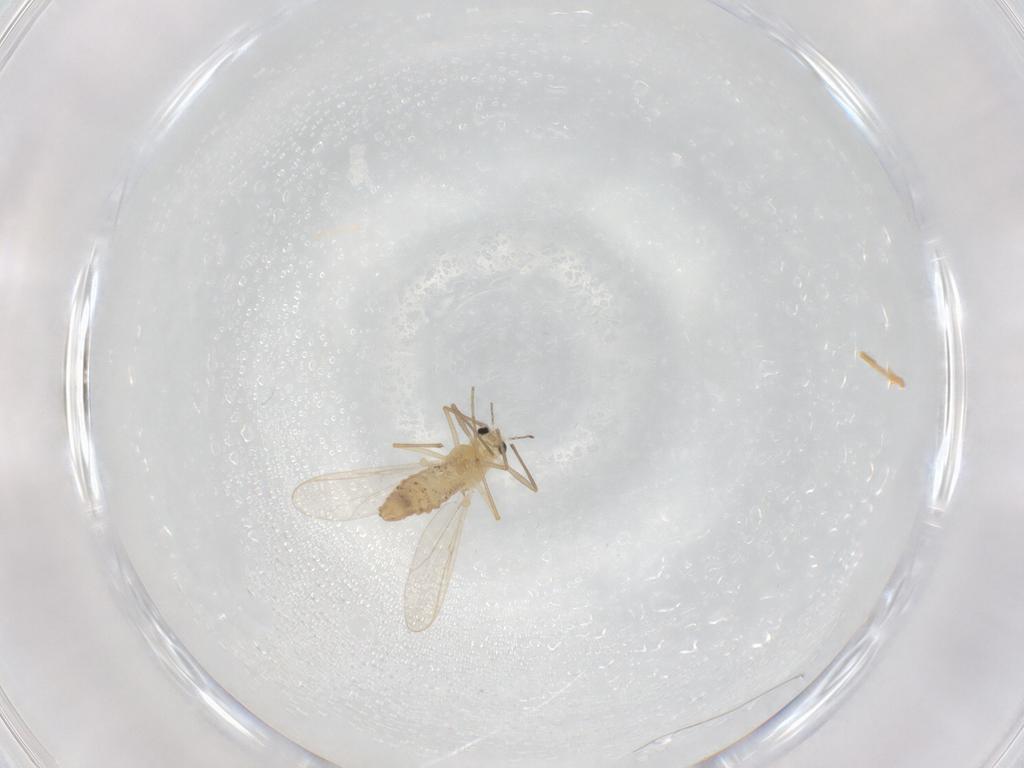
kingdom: Animalia
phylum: Arthropoda
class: Insecta
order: Diptera
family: Chironomidae
